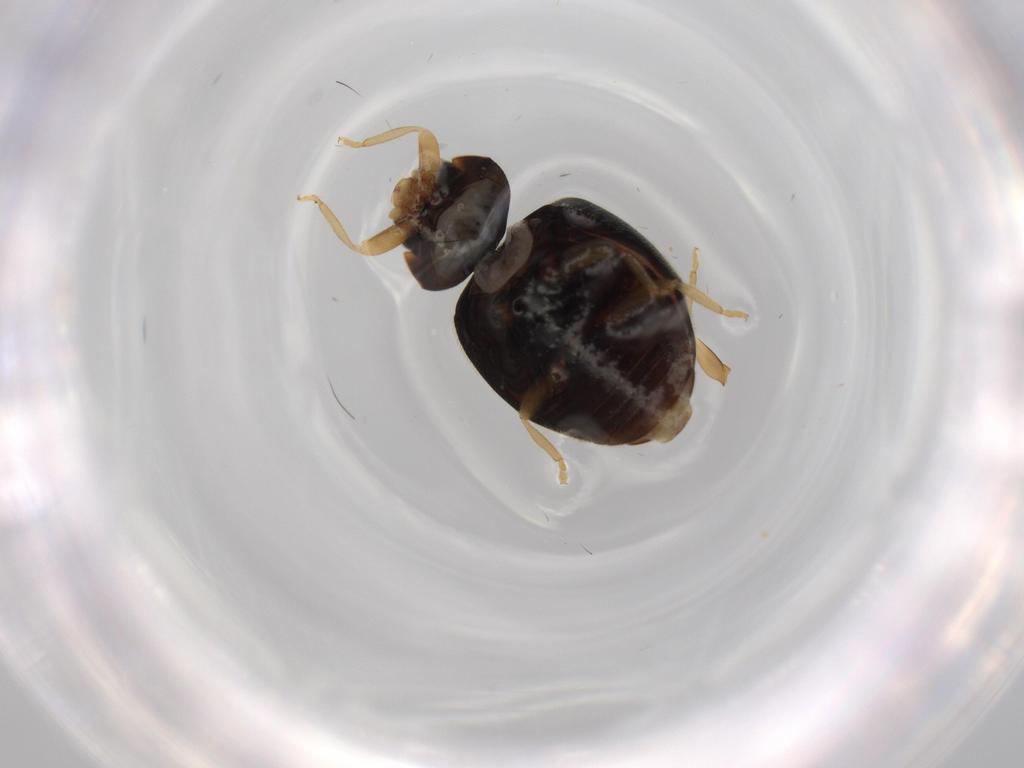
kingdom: Animalia
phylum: Arthropoda
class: Insecta
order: Coleoptera
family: Coccinellidae
